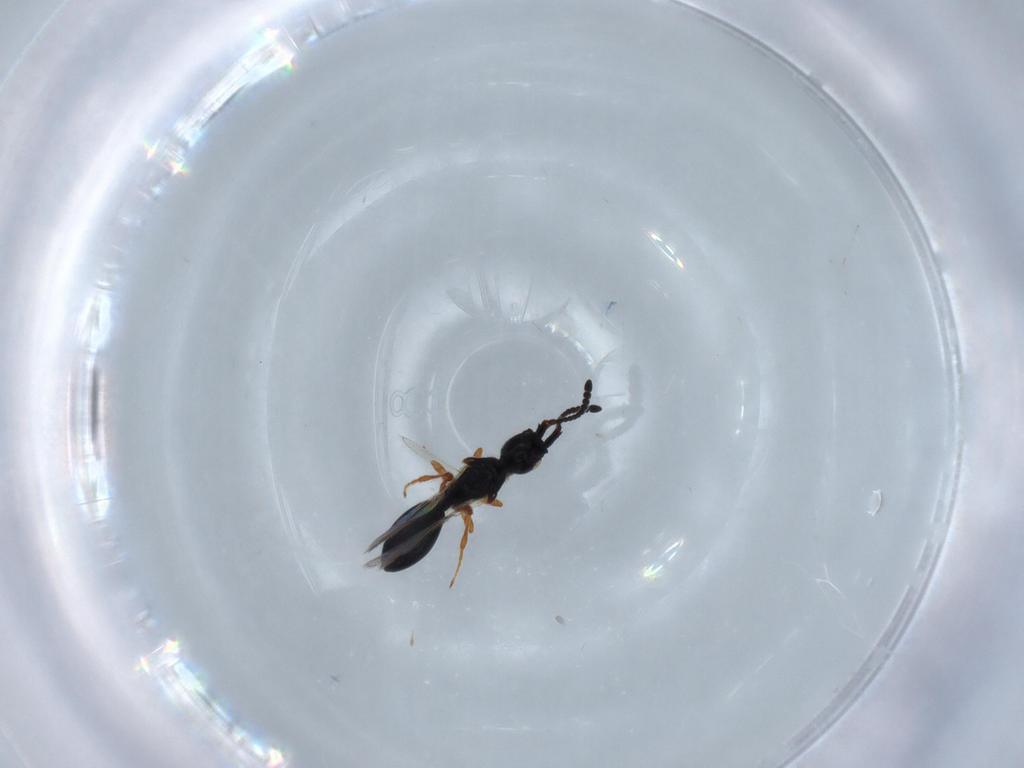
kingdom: Animalia
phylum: Arthropoda
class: Insecta
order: Hymenoptera
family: Diapriidae
